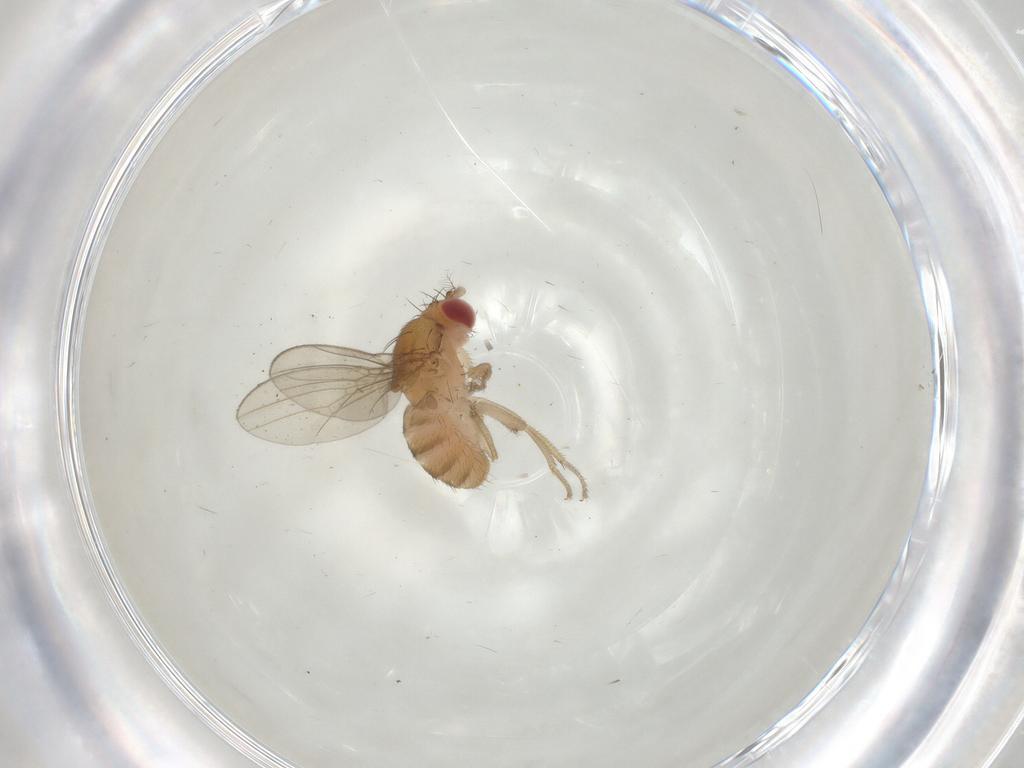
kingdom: Animalia
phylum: Arthropoda
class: Insecta
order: Diptera
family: Drosophilidae
